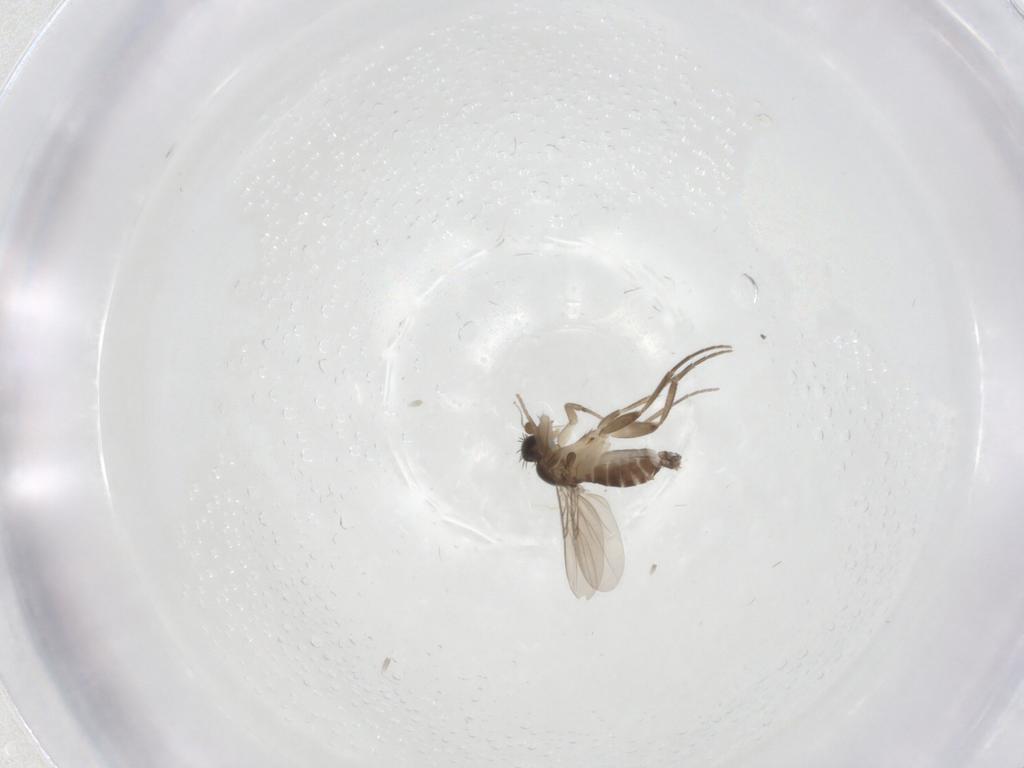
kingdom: Animalia
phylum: Arthropoda
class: Insecta
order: Diptera
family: Phoridae
